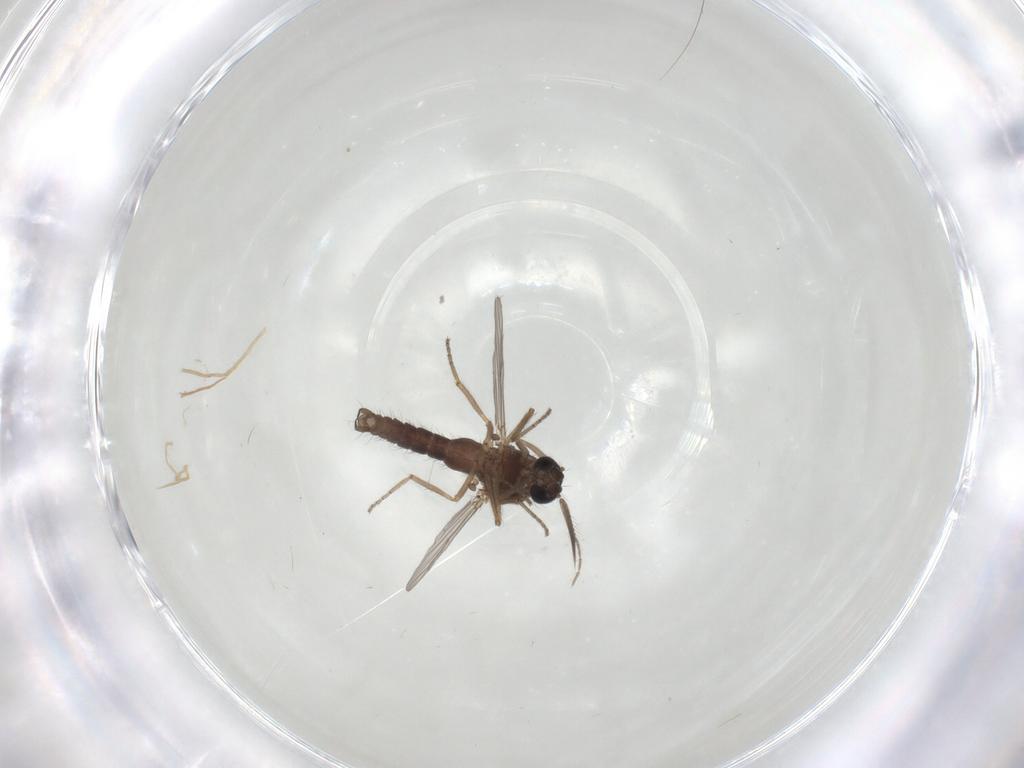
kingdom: Animalia
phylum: Arthropoda
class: Insecta
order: Diptera
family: Ceratopogonidae
